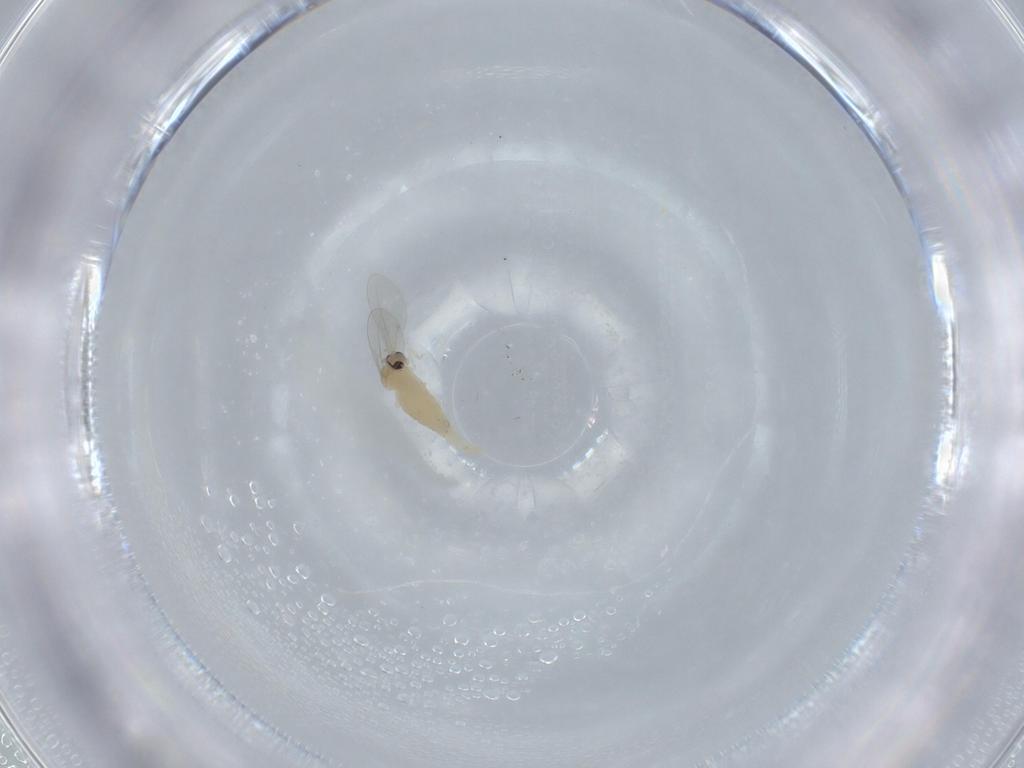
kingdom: Animalia
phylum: Arthropoda
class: Insecta
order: Diptera
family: Cecidomyiidae
